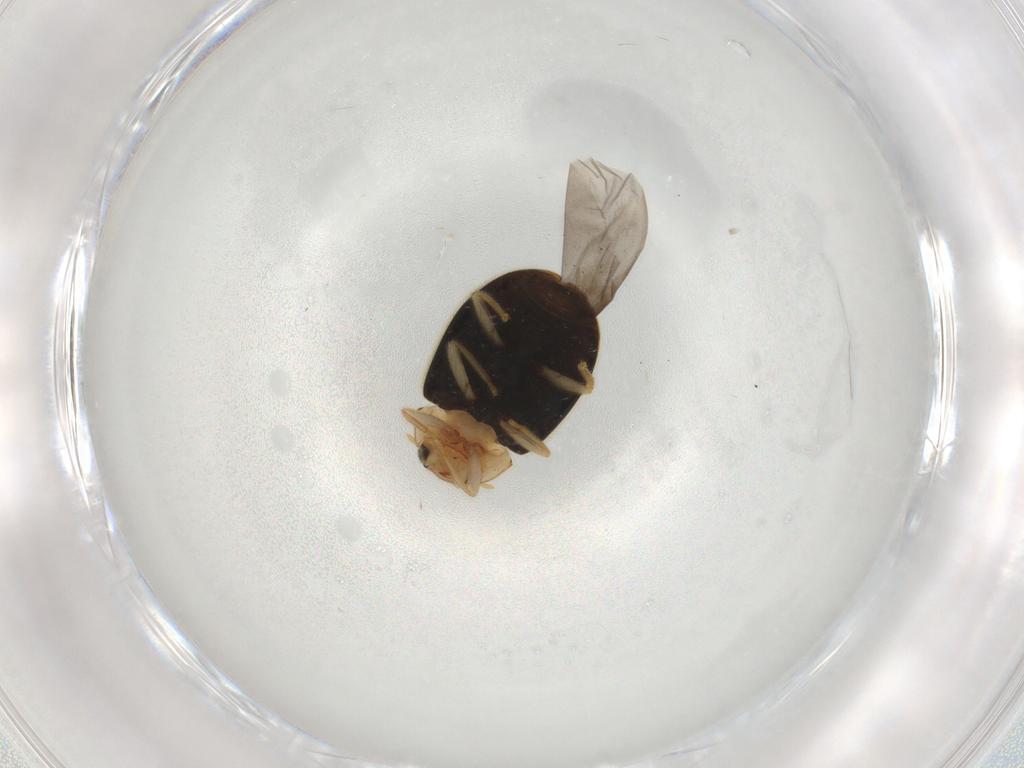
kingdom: Animalia
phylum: Arthropoda
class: Insecta
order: Coleoptera
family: Coccinellidae
